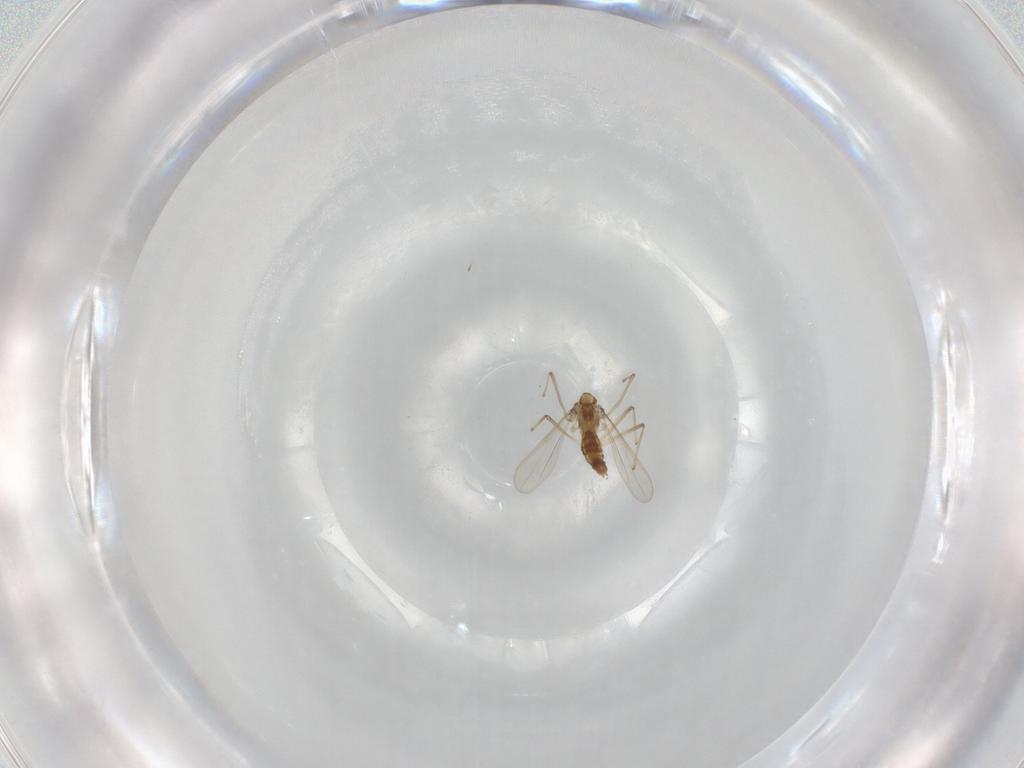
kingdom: Animalia
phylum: Arthropoda
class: Insecta
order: Diptera
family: Chironomidae
